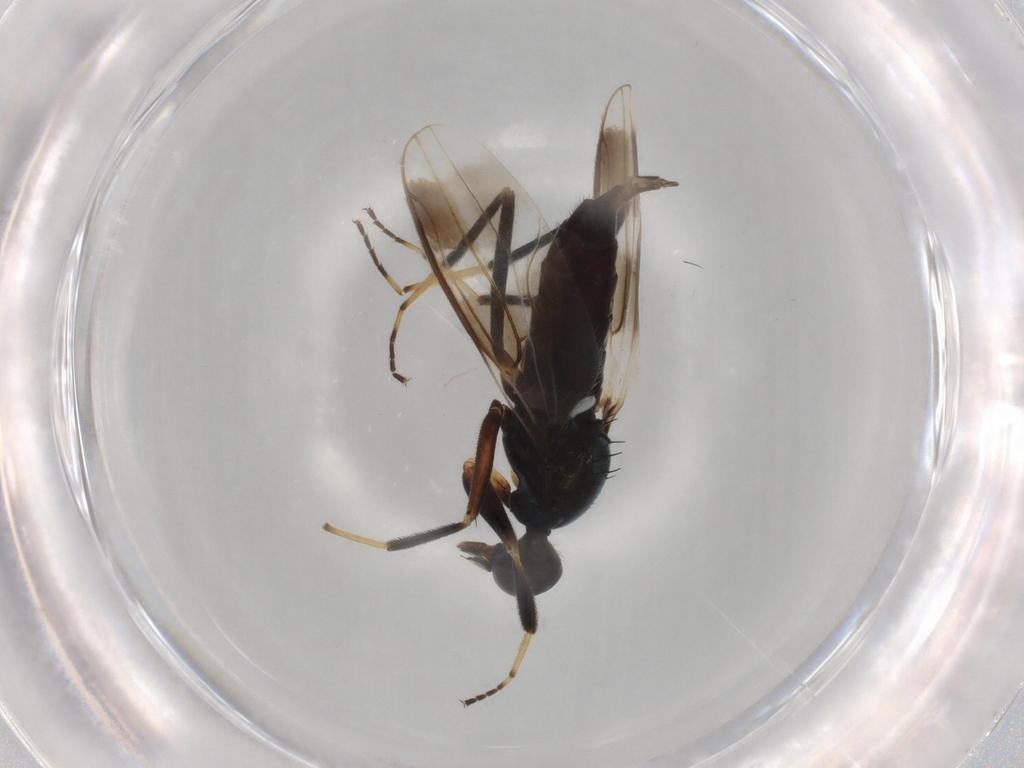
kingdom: Animalia
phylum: Arthropoda
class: Insecta
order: Diptera
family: Hybotidae
